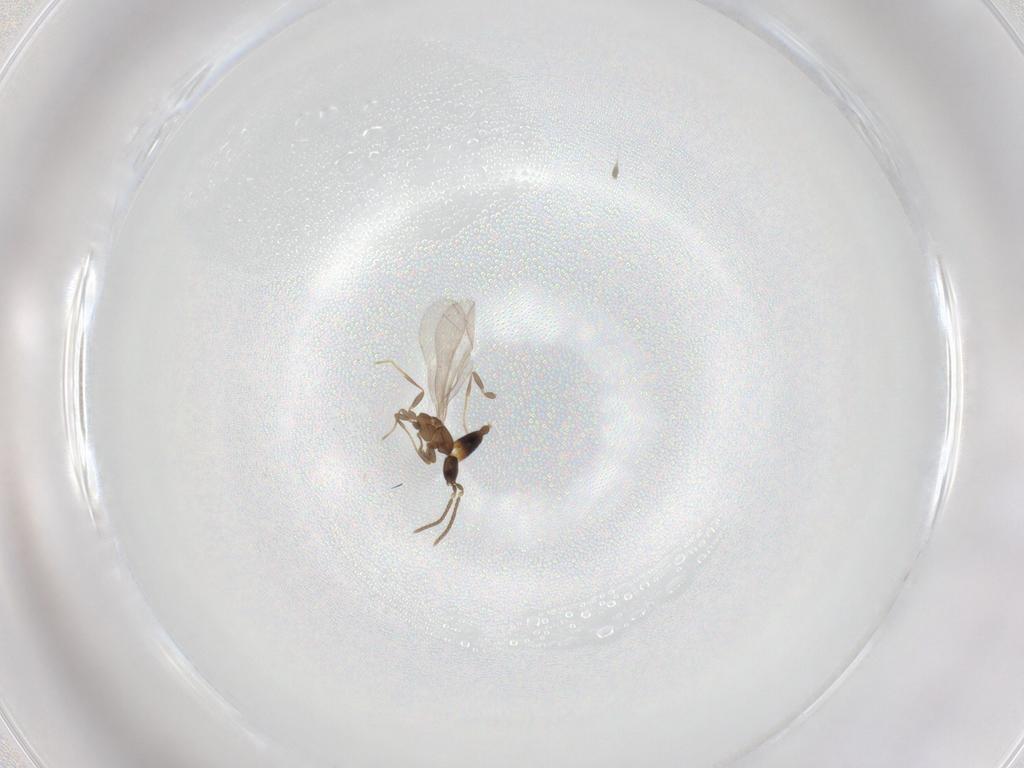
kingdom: Animalia
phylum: Arthropoda
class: Insecta
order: Hymenoptera
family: Formicidae
